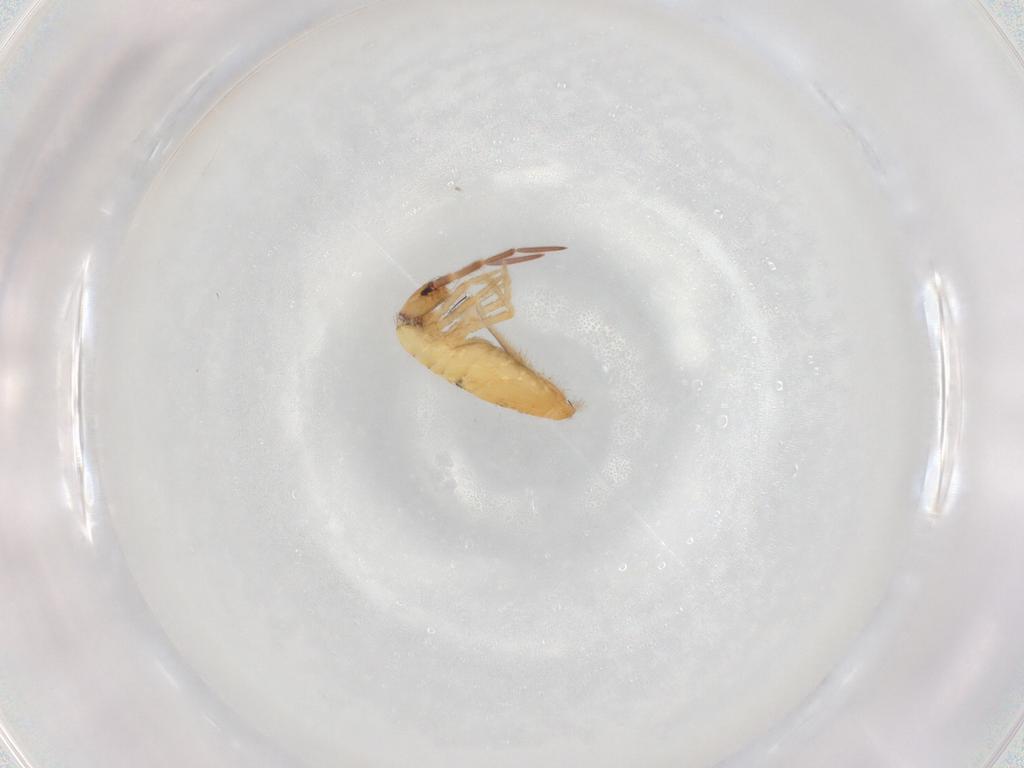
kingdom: Animalia
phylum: Arthropoda
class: Collembola
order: Entomobryomorpha
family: Entomobryidae
